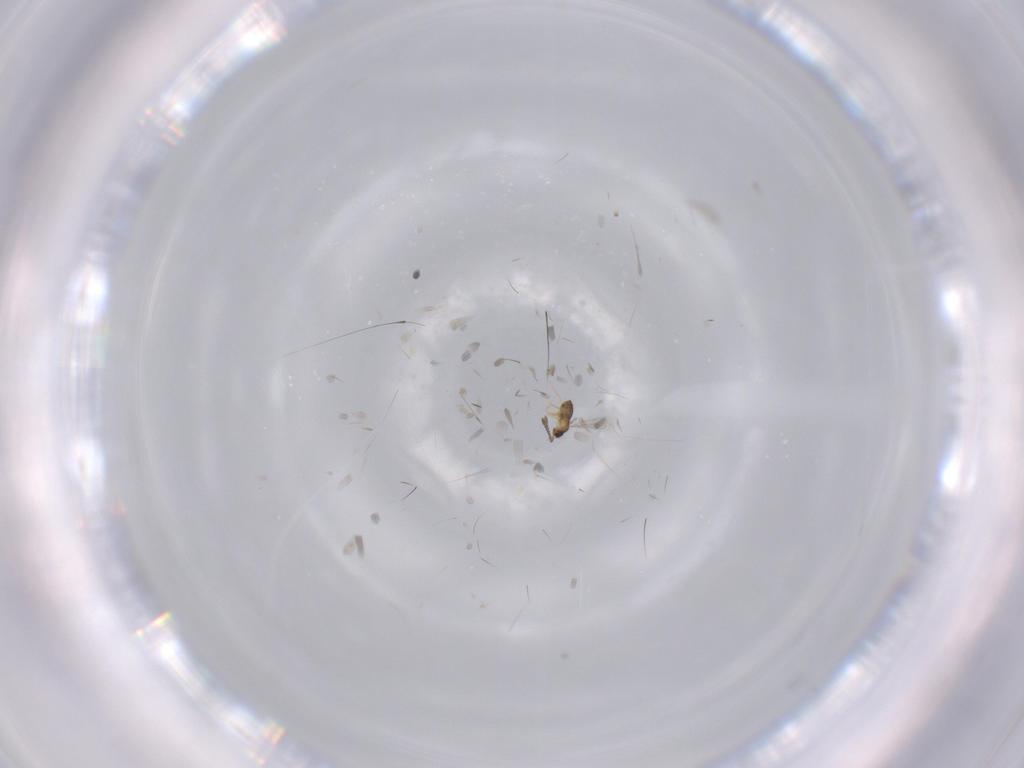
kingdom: Animalia
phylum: Arthropoda
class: Insecta
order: Hymenoptera
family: Vespidae
